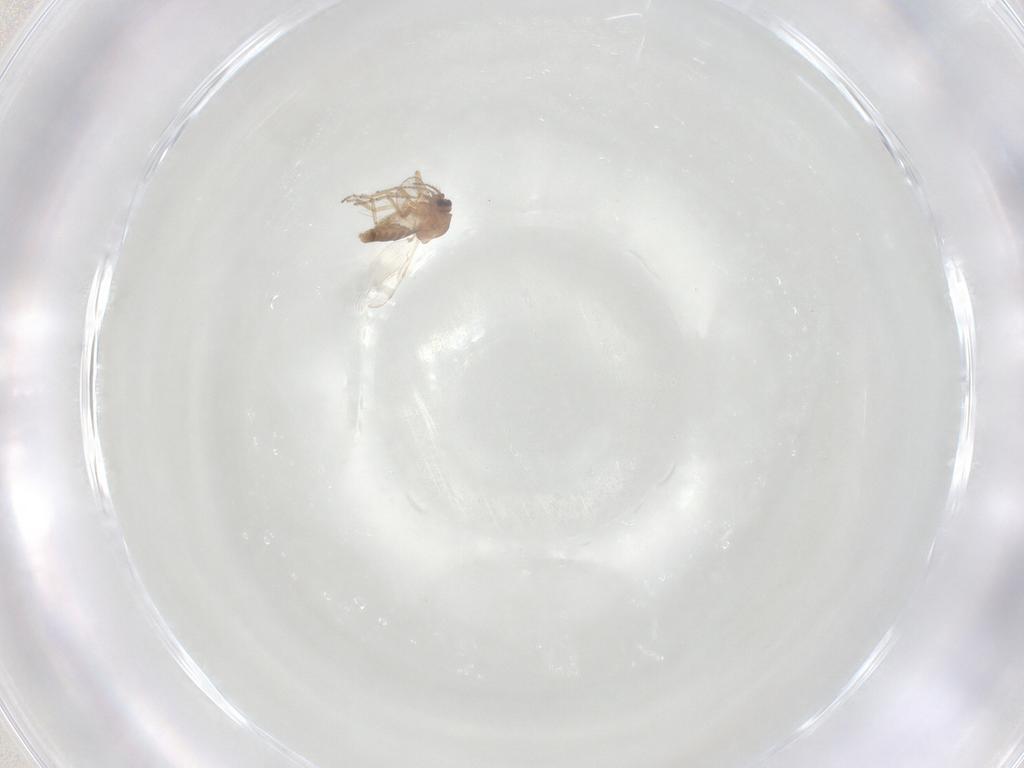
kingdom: Animalia
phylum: Arthropoda
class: Insecta
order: Diptera
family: Ceratopogonidae
